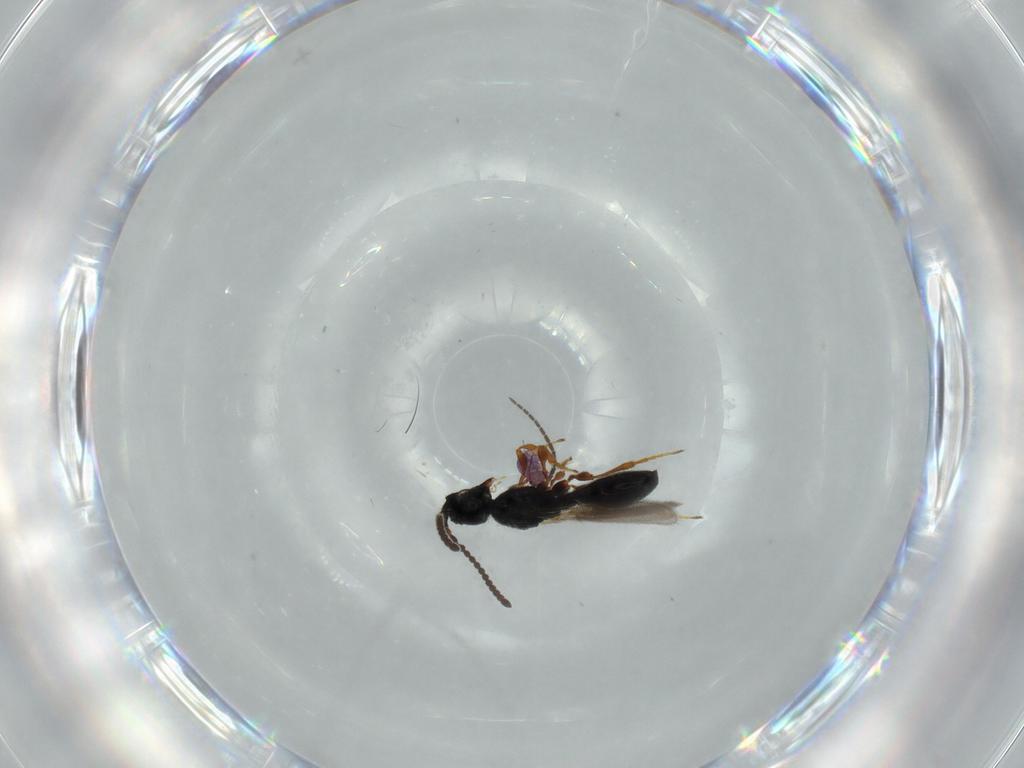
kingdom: Animalia
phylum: Arthropoda
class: Insecta
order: Hymenoptera
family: Diapriidae
